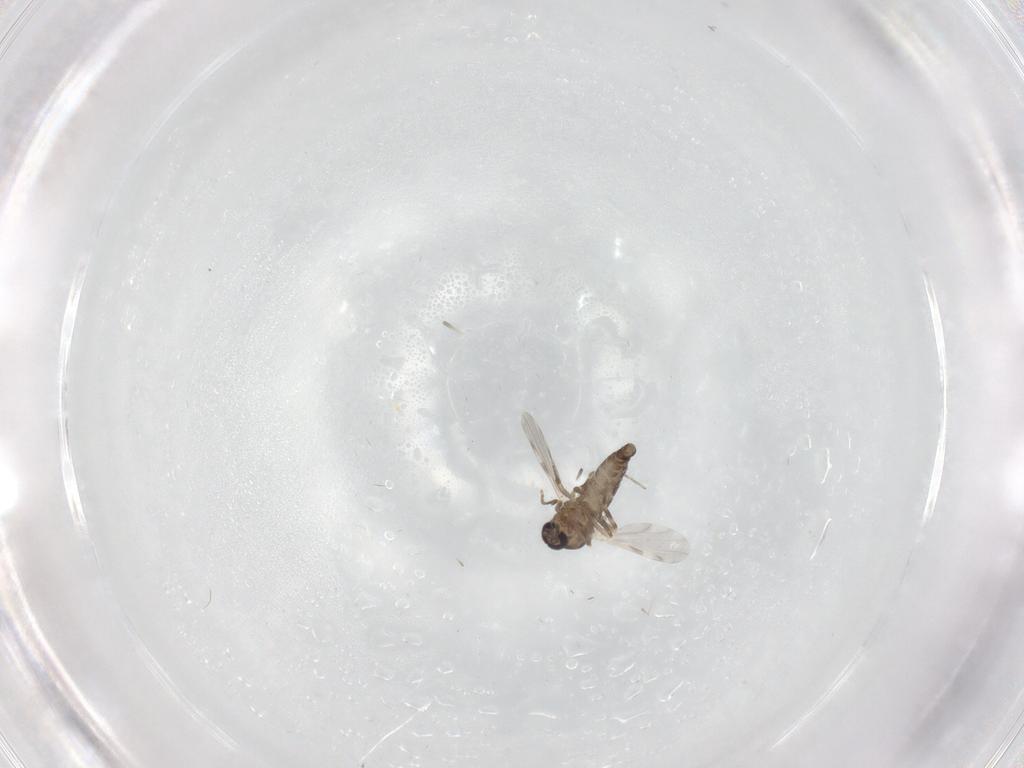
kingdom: Animalia
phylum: Arthropoda
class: Insecta
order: Diptera
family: Ceratopogonidae
